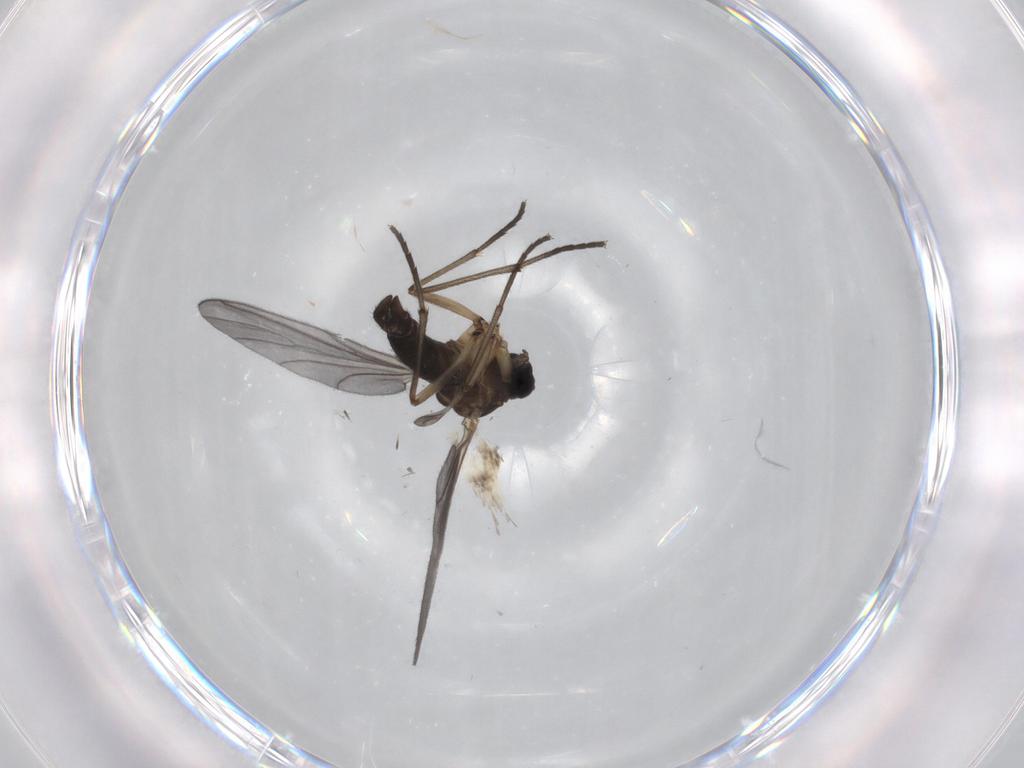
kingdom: Animalia
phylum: Arthropoda
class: Insecta
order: Diptera
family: Sciaridae
